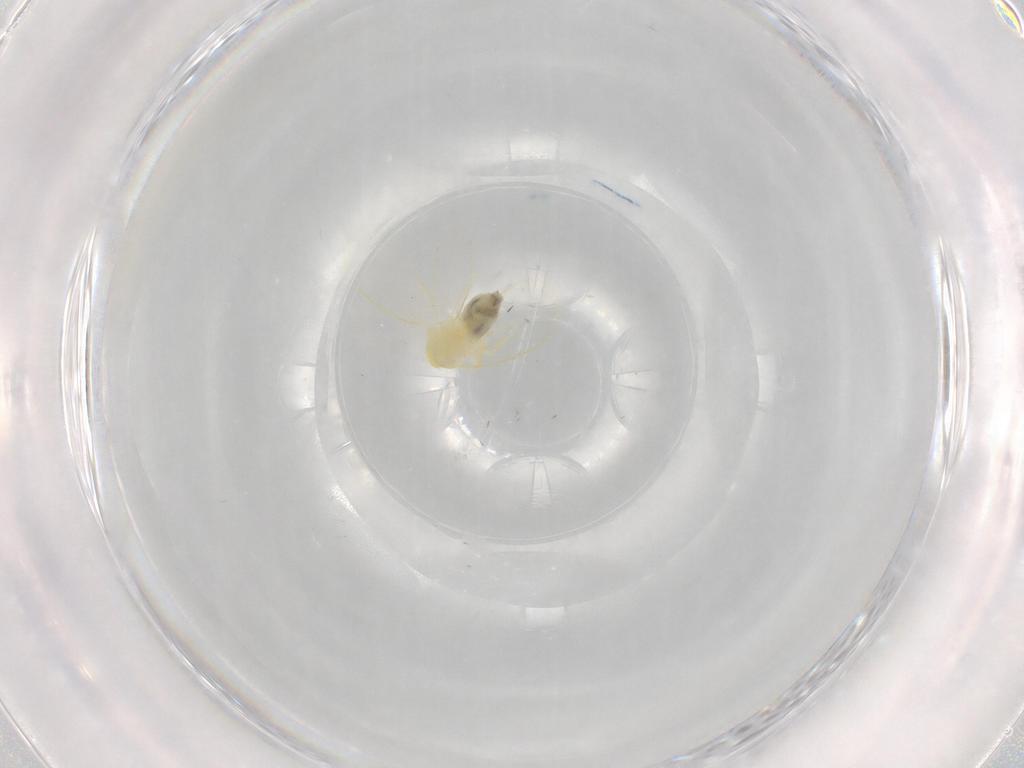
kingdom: Animalia
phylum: Arthropoda
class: Insecta
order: Hemiptera
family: Aleyrodidae
